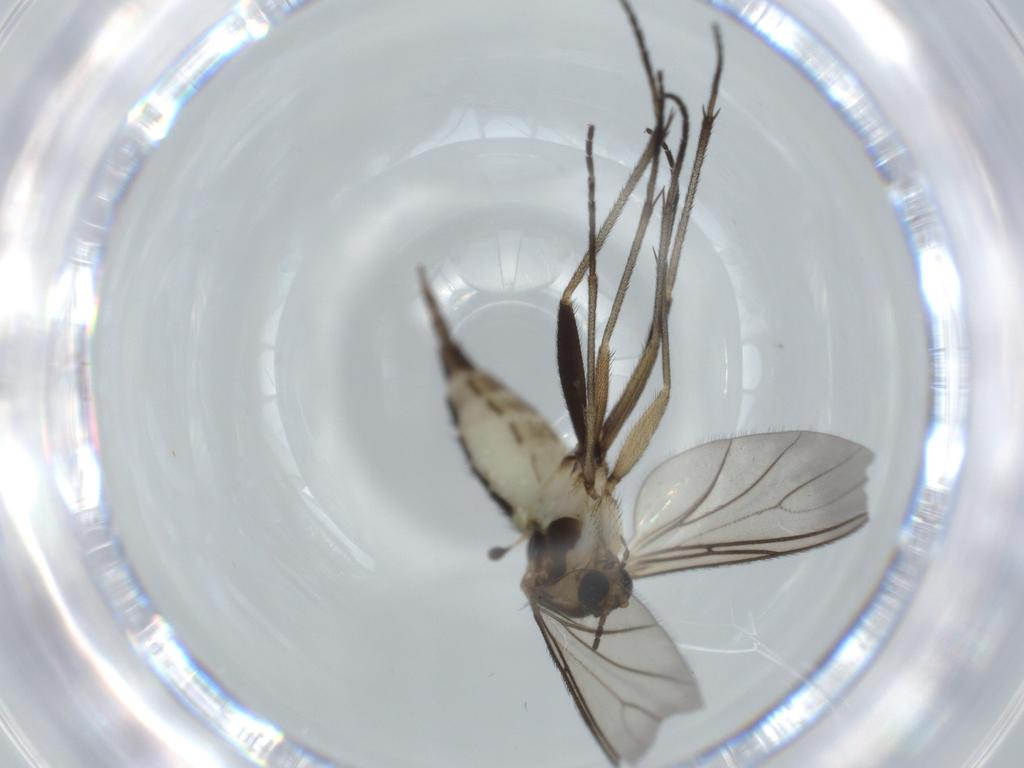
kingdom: Animalia
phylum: Arthropoda
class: Insecta
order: Diptera
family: Sciaridae
